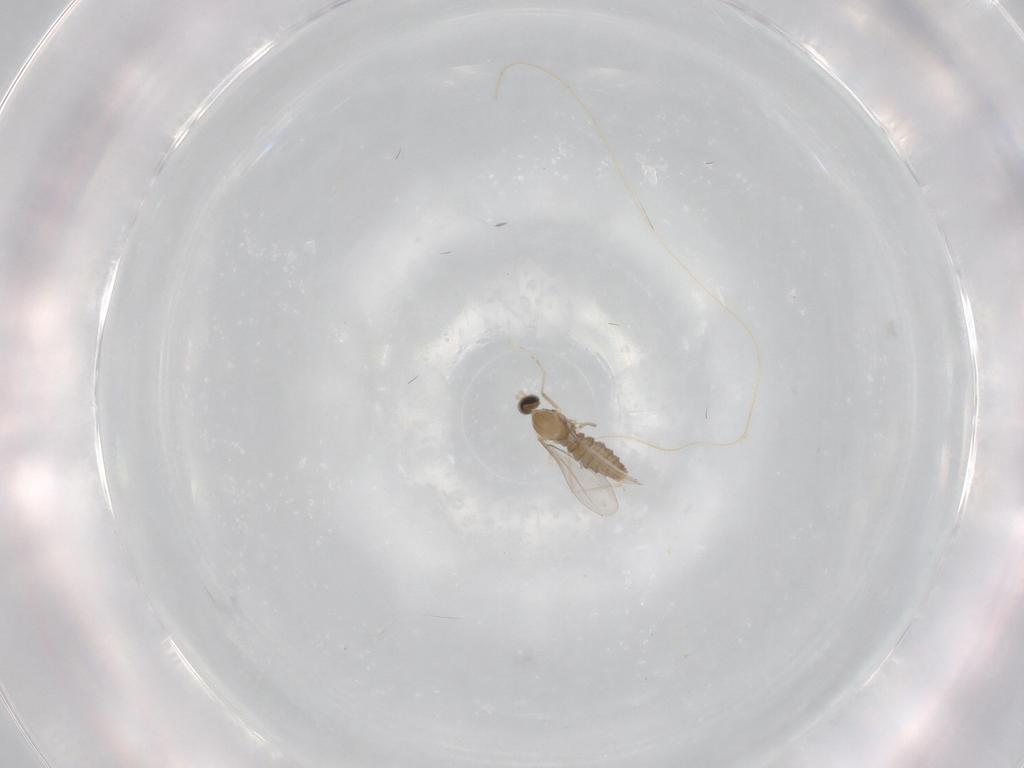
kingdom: Animalia
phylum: Arthropoda
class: Insecta
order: Diptera
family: Cecidomyiidae
